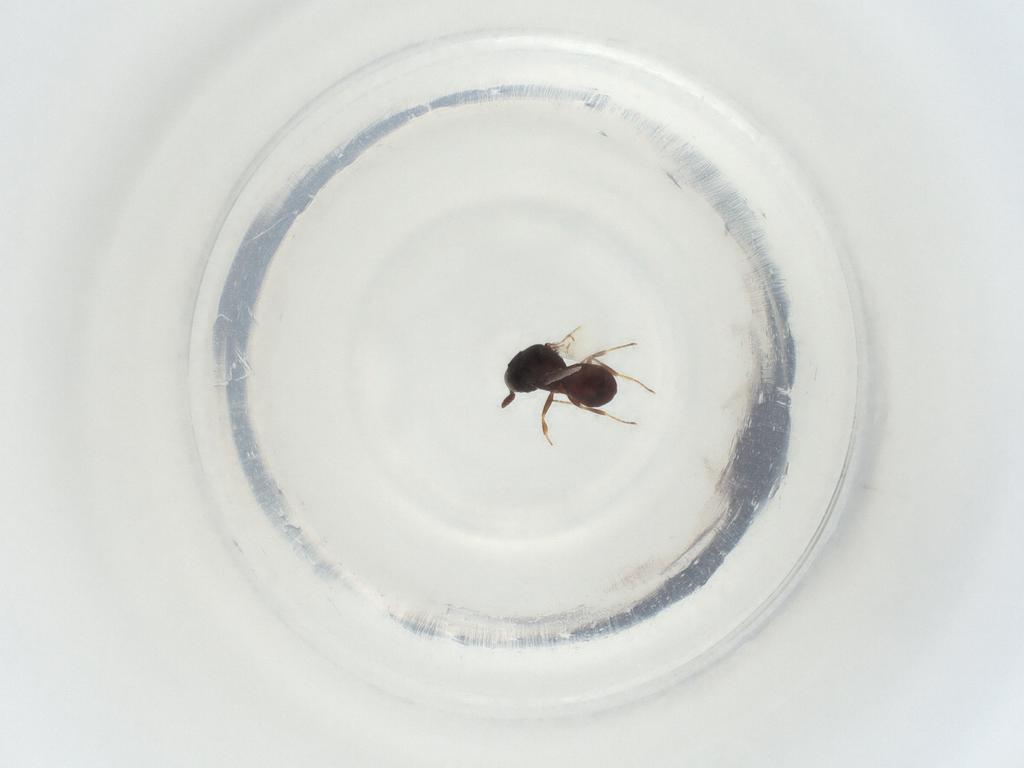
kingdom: Animalia
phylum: Arthropoda
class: Insecta
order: Hymenoptera
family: Scelionidae
